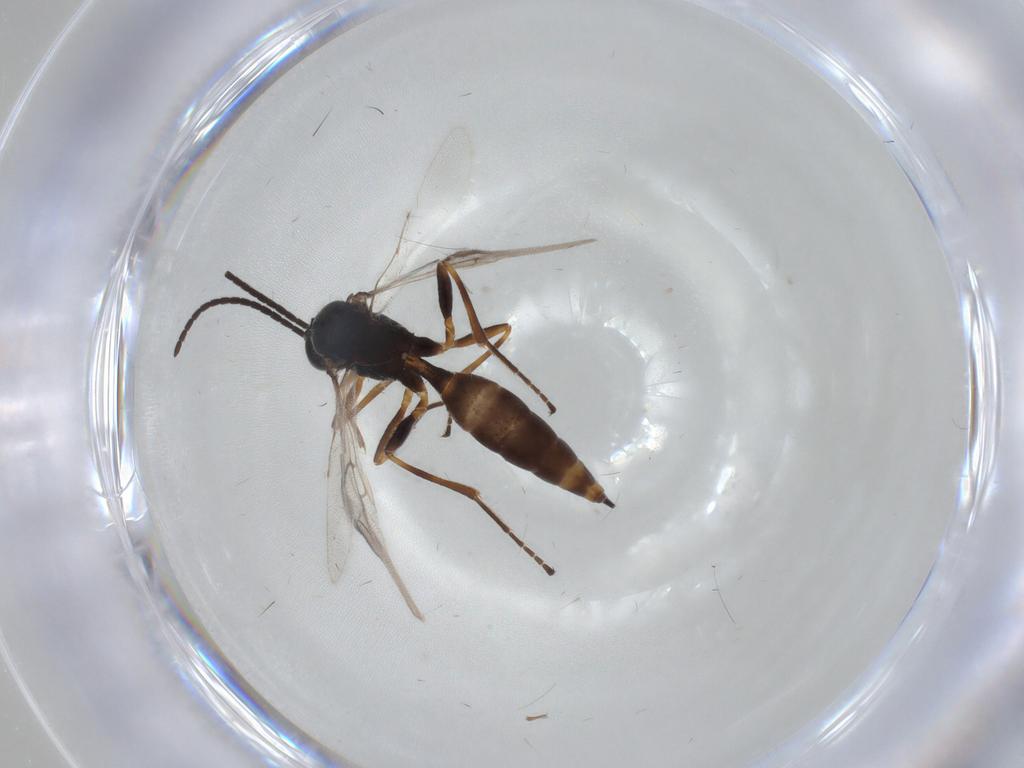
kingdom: Animalia
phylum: Arthropoda
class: Insecta
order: Hymenoptera
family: Braconidae
